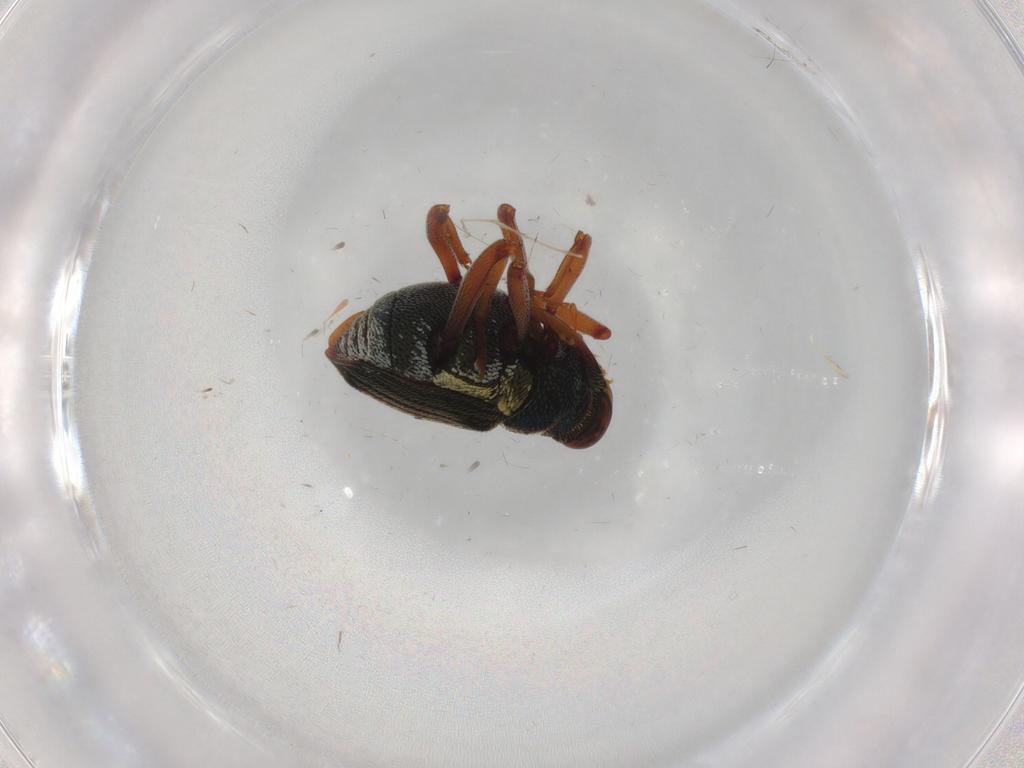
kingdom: Animalia
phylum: Arthropoda
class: Insecta
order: Coleoptera
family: Curculionidae
